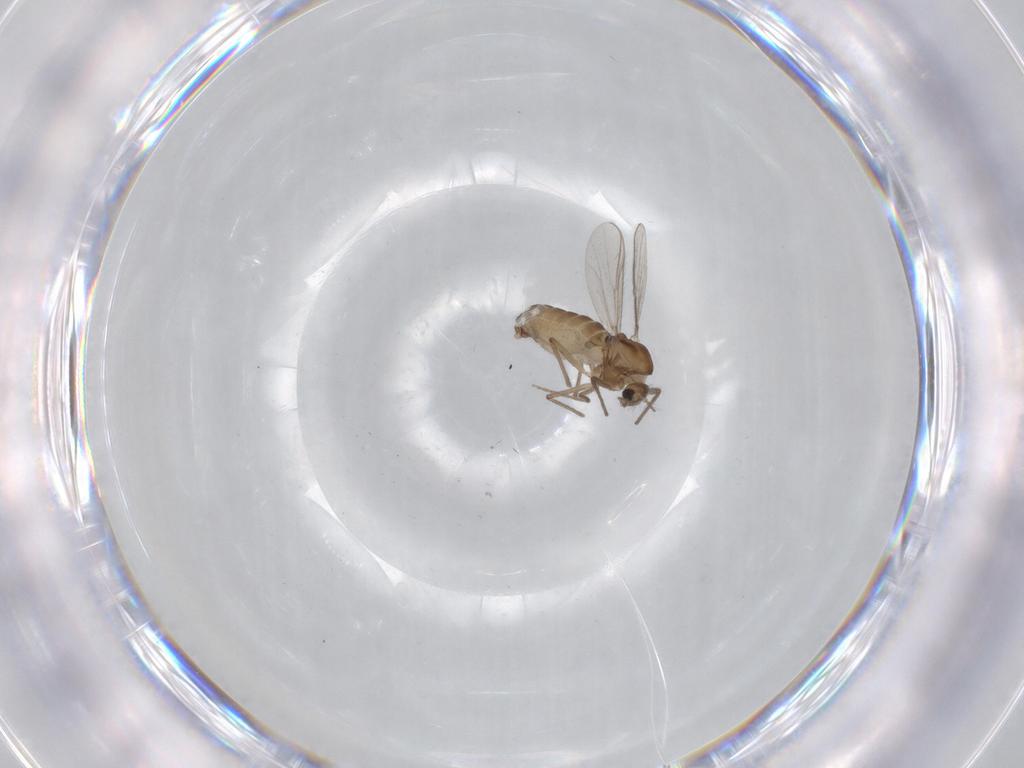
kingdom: Animalia
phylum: Arthropoda
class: Insecta
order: Diptera
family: Chironomidae
